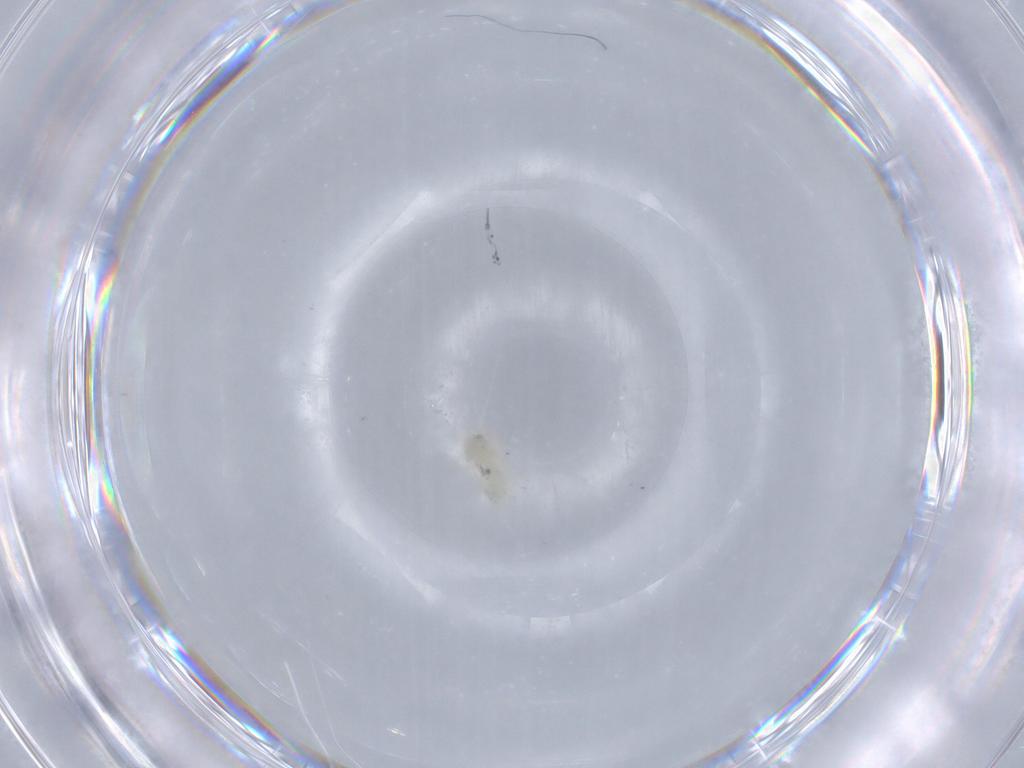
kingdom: Animalia
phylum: Arthropoda
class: Insecta
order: Hemiptera
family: Aleyrodidae
